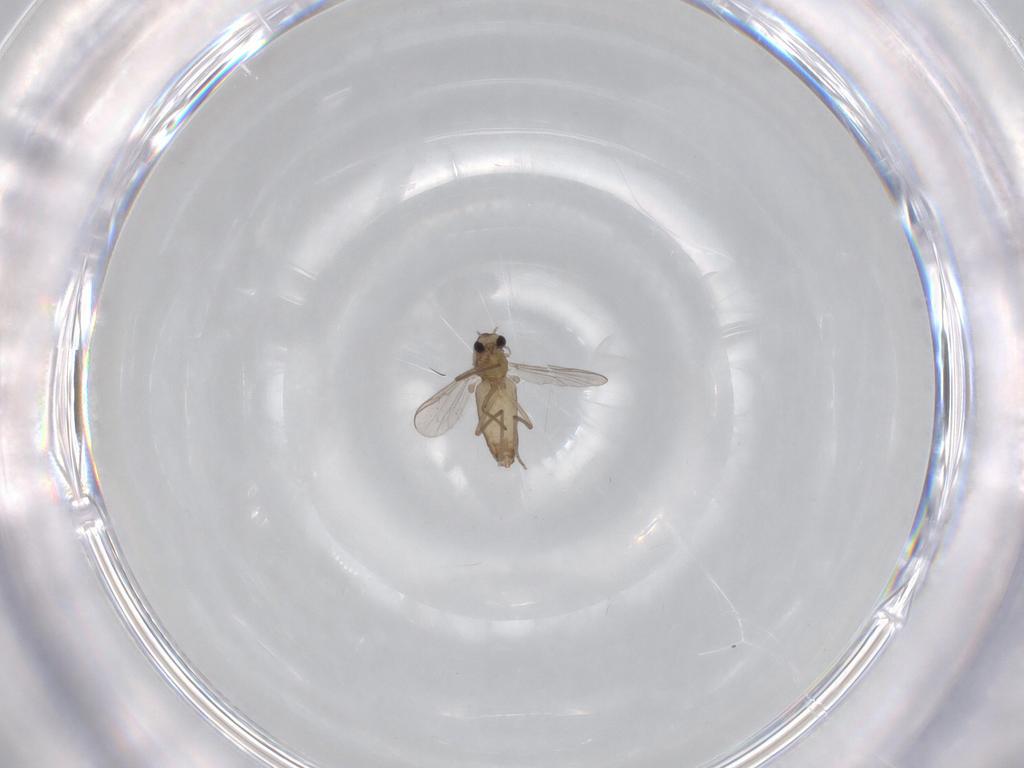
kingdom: Animalia
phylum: Arthropoda
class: Insecta
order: Diptera
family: Chironomidae
